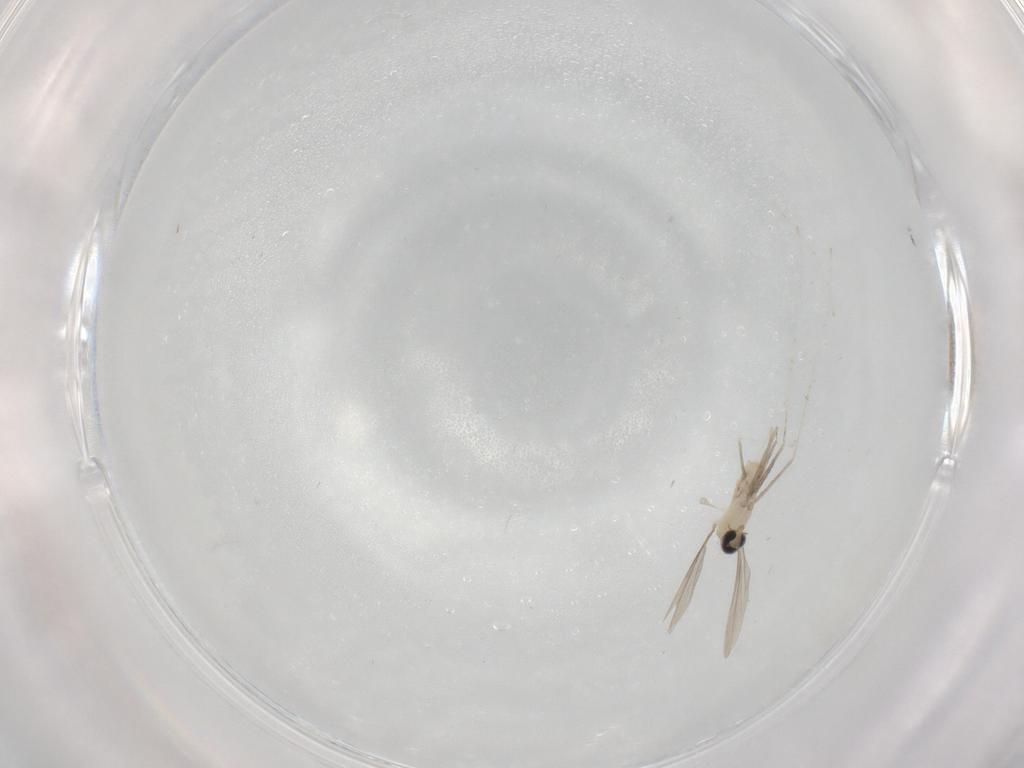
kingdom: Animalia
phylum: Arthropoda
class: Insecta
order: Diptera
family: Cecidomyiidae
